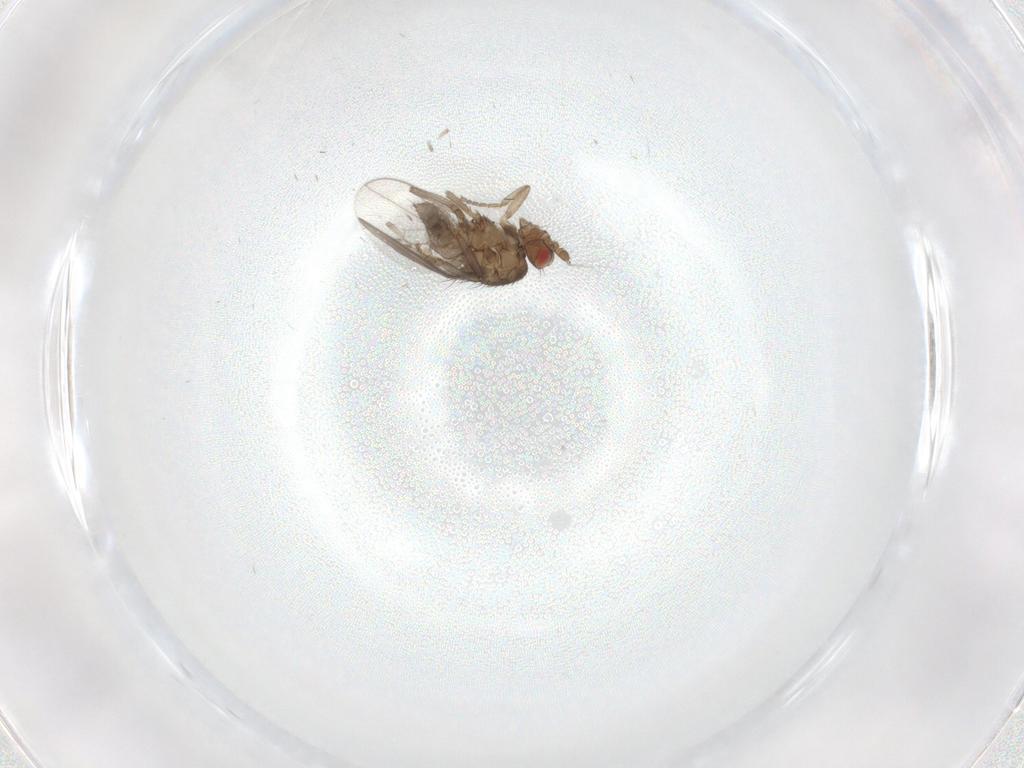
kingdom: Animalia
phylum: Arthropoda
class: Insecta
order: Diptera
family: Sphaeroceridae
